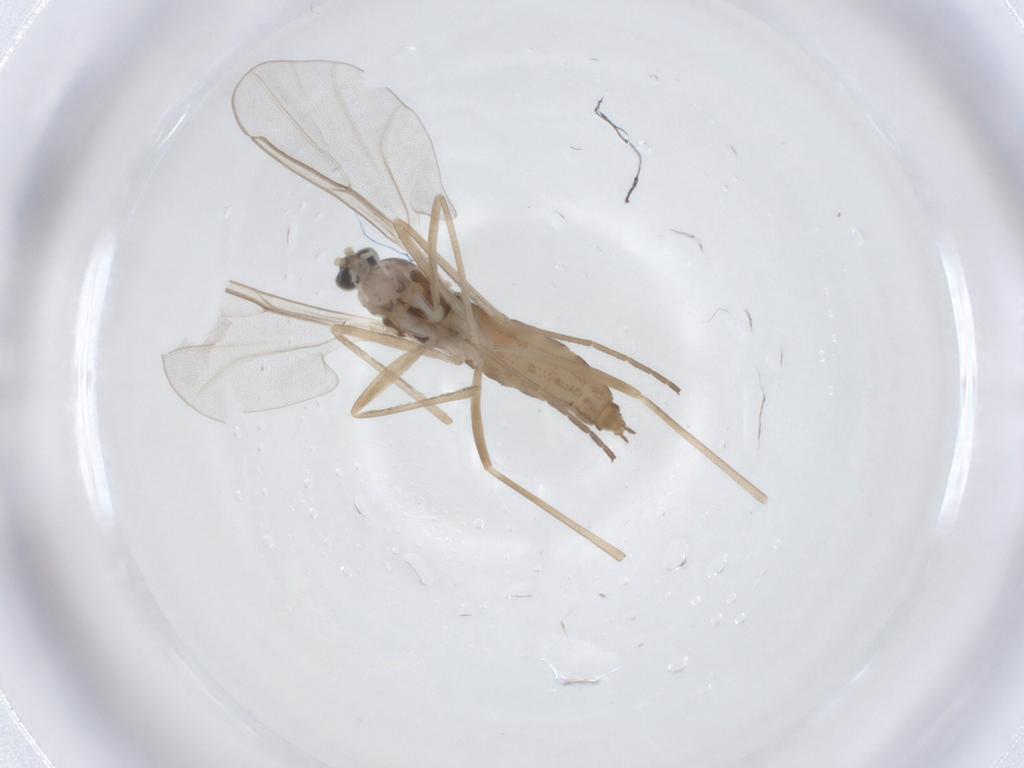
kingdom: Animalia
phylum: Arthropoda
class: Insecta
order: Diptera
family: Cecidomyiidae
